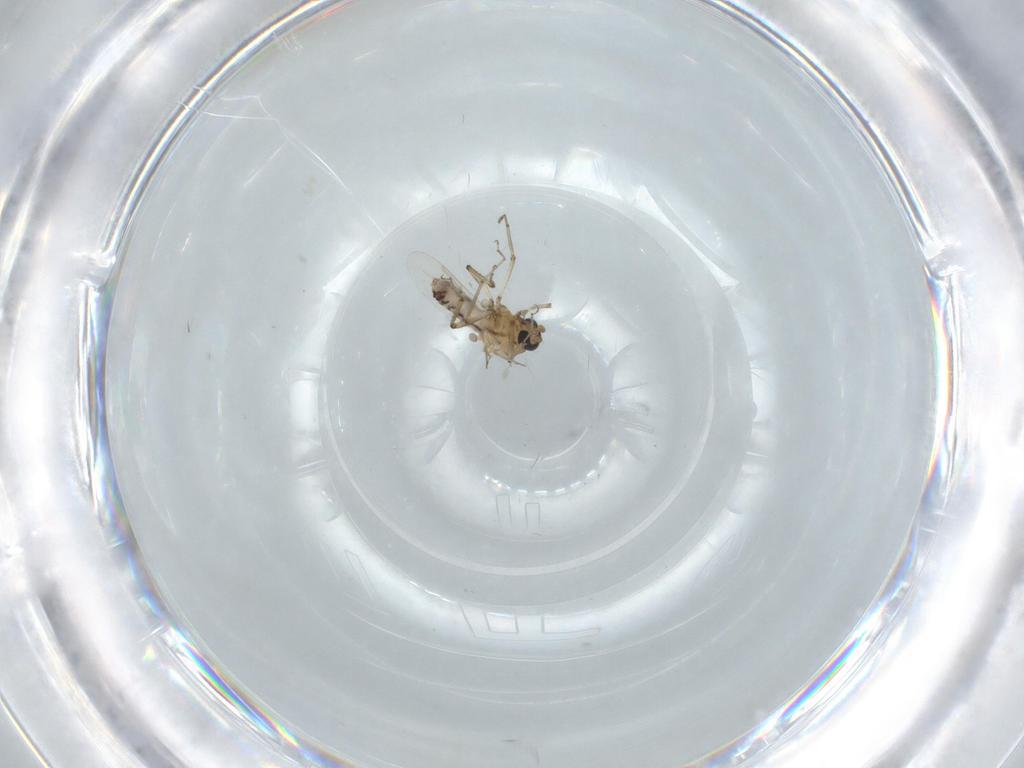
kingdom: Animalia
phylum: Arthropoda
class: Insecta
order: Diptera
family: Ceratopogonidae
